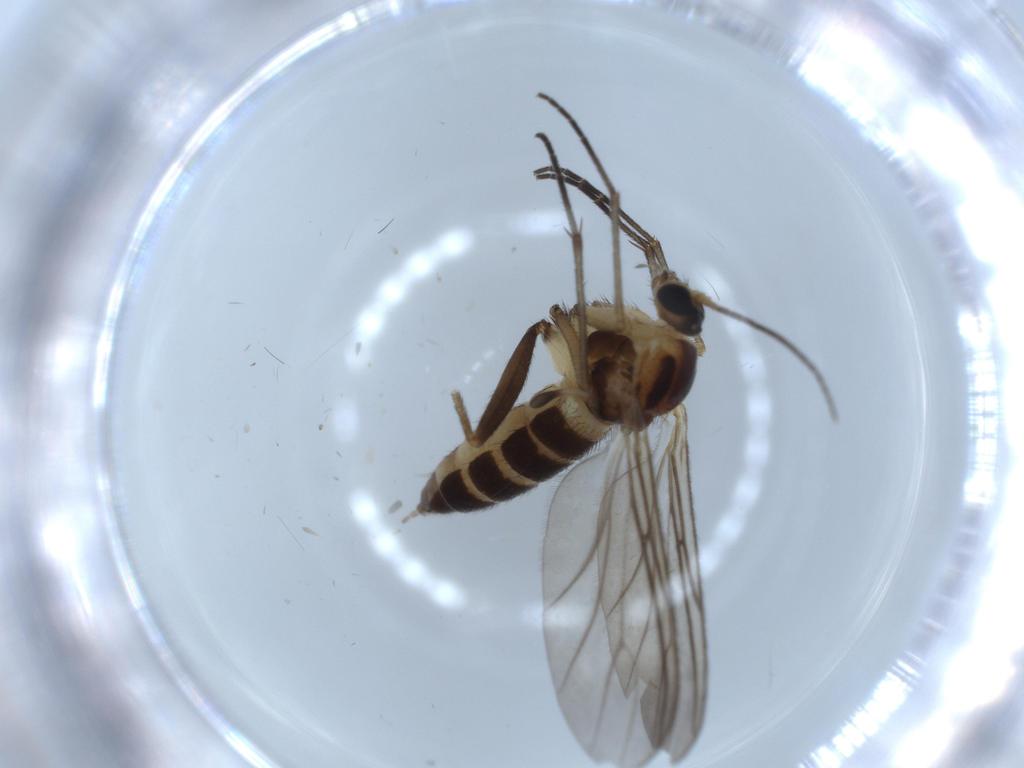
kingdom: Animalia
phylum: Arthropoda
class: Insecta
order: Diptera
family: Sciaridae
